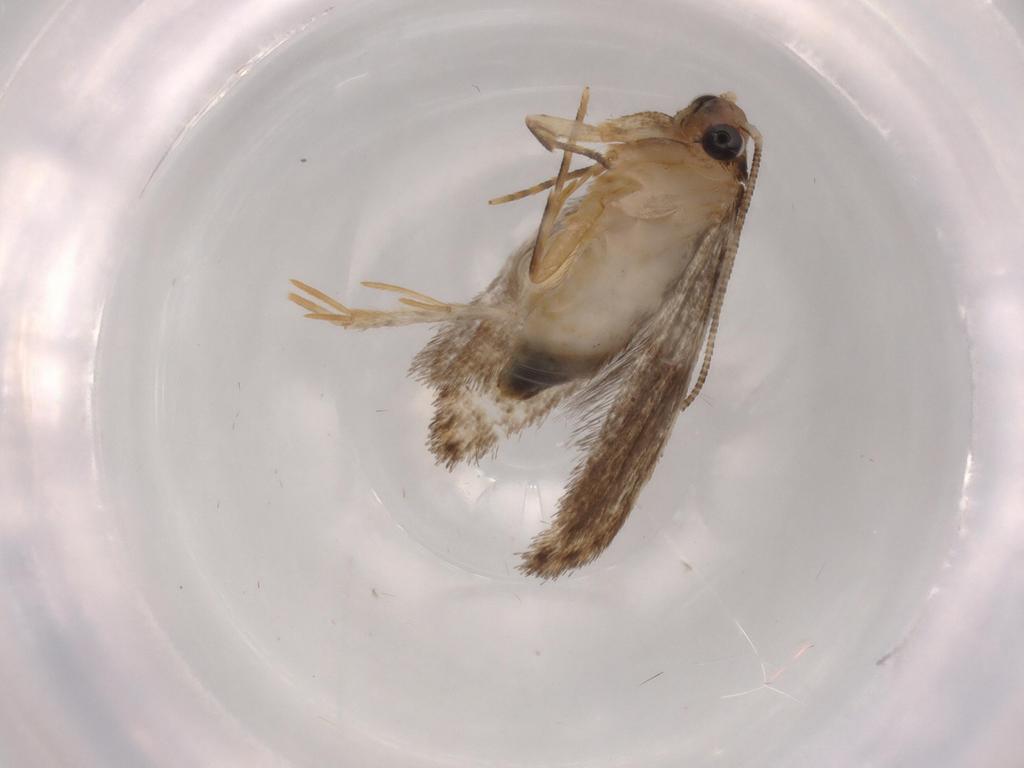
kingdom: Animalia
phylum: Arthropoda
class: Insecta
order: Lepidoptera
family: Tineidae
